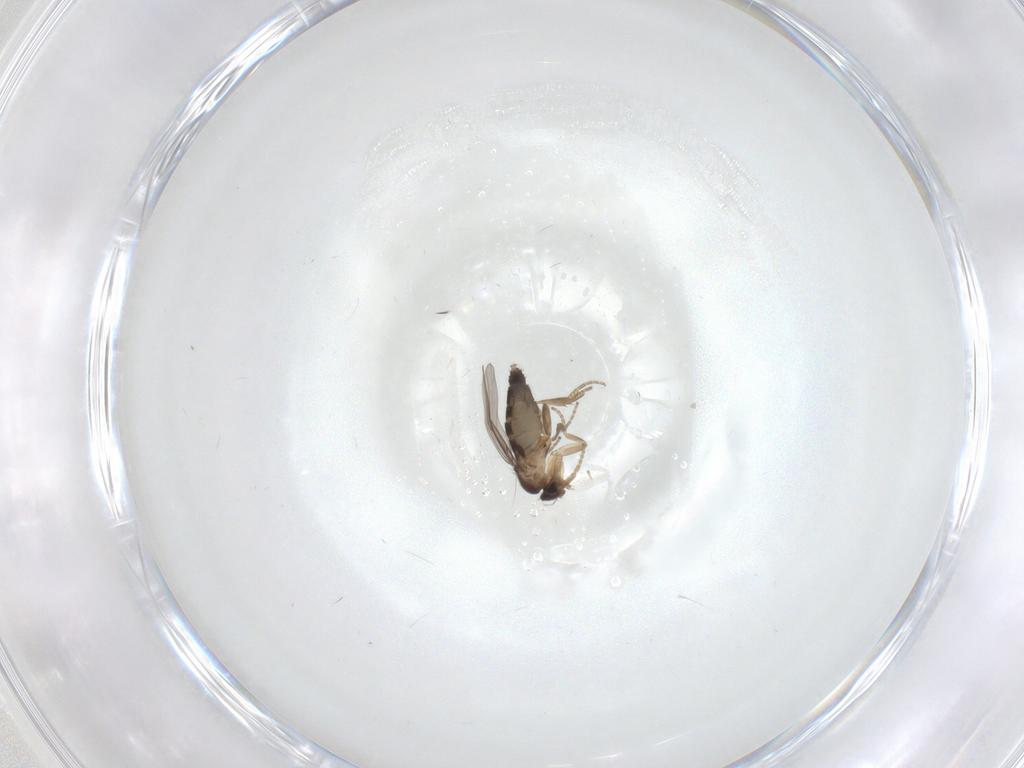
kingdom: Animalia
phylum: Arthropoda
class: Insecta
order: Diptera
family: Phoridae
